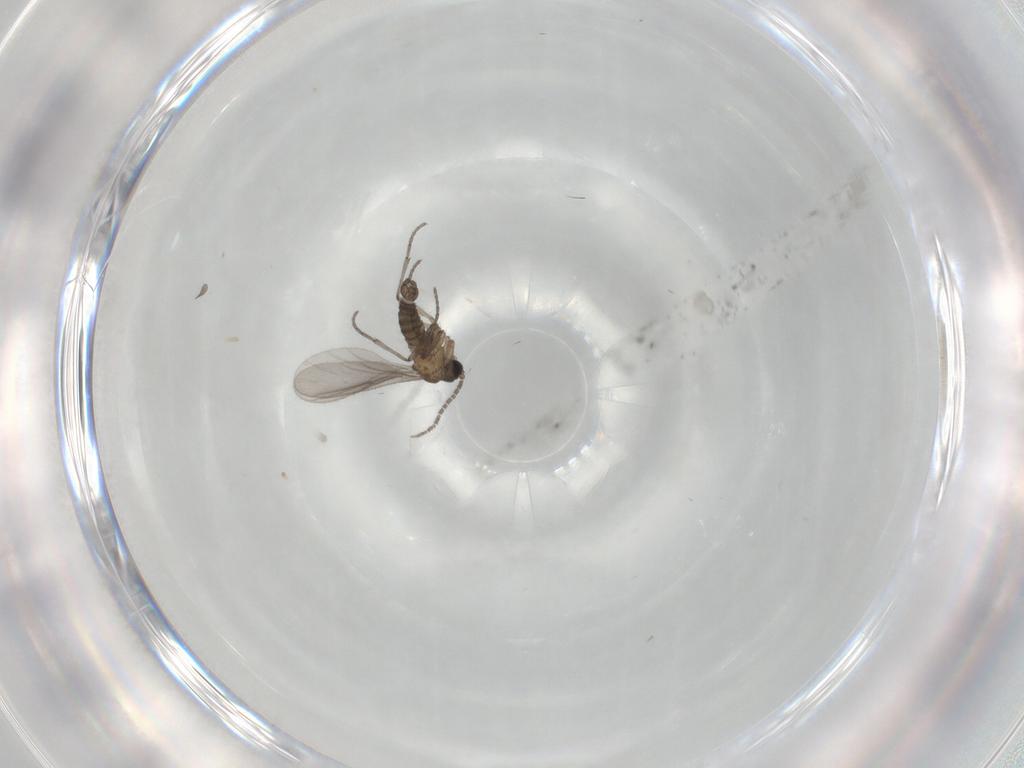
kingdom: Animalia
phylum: Arthropoda
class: Insecta
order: Diptera
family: Sciaridae
